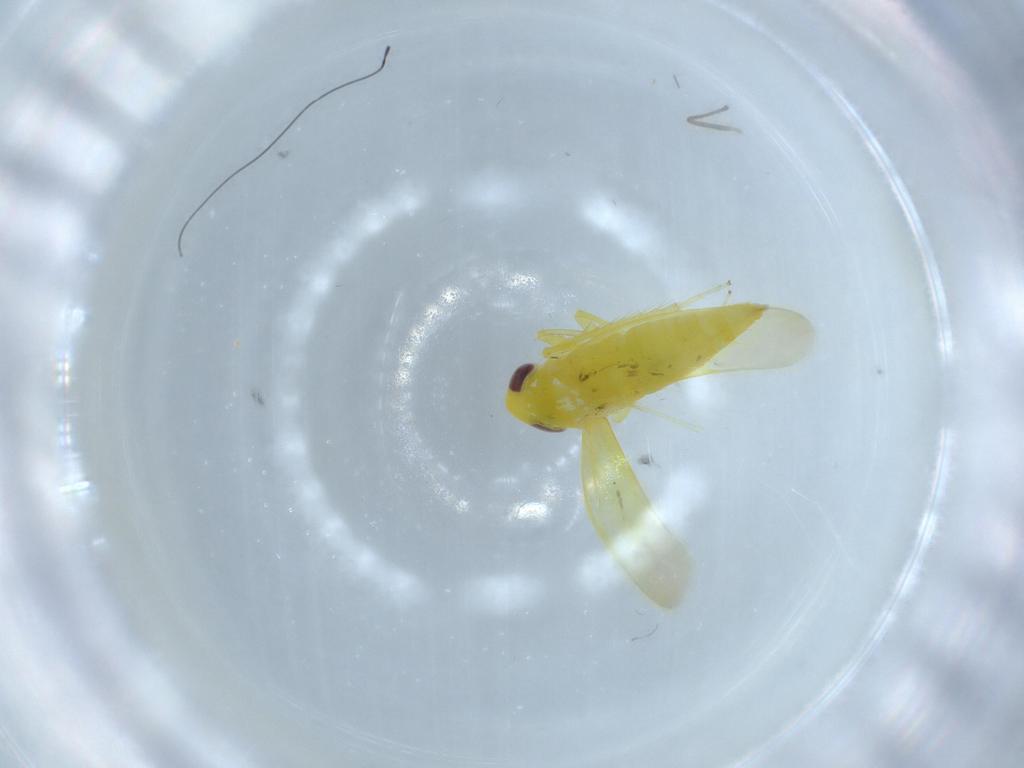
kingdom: Animalia
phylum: Arthropoda
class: Insecta
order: Hemiptera
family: Cicadellidae
